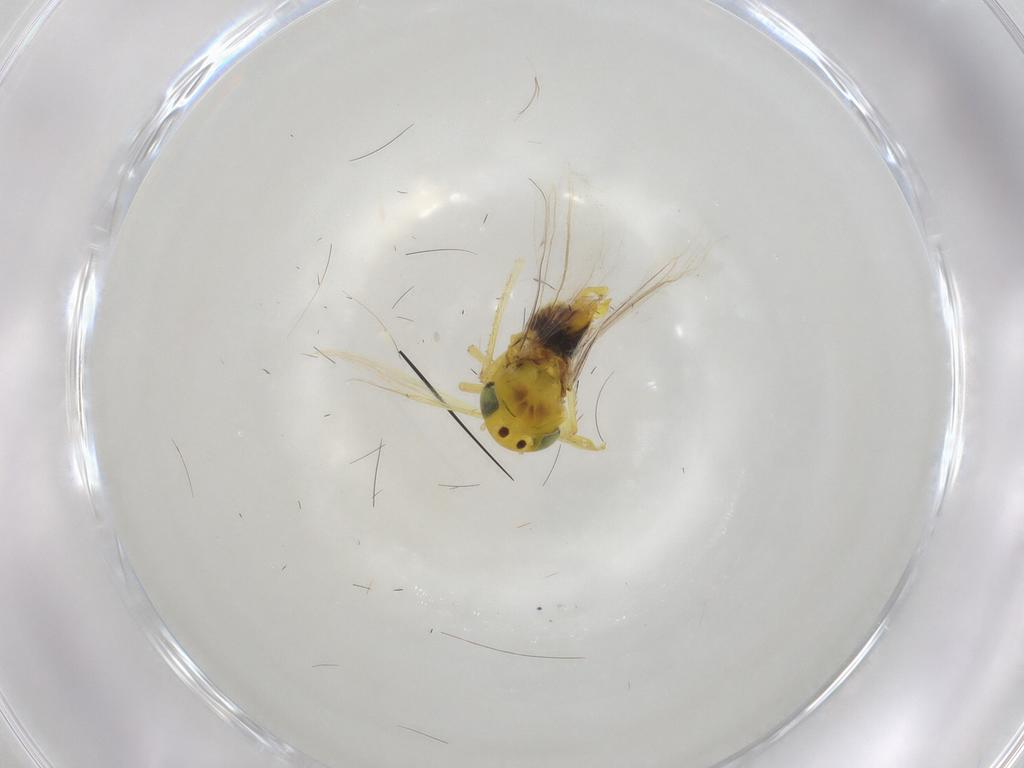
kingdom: Animalia
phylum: Arthropoda
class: Insecta
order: Hemiptera
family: Cicadellidae
